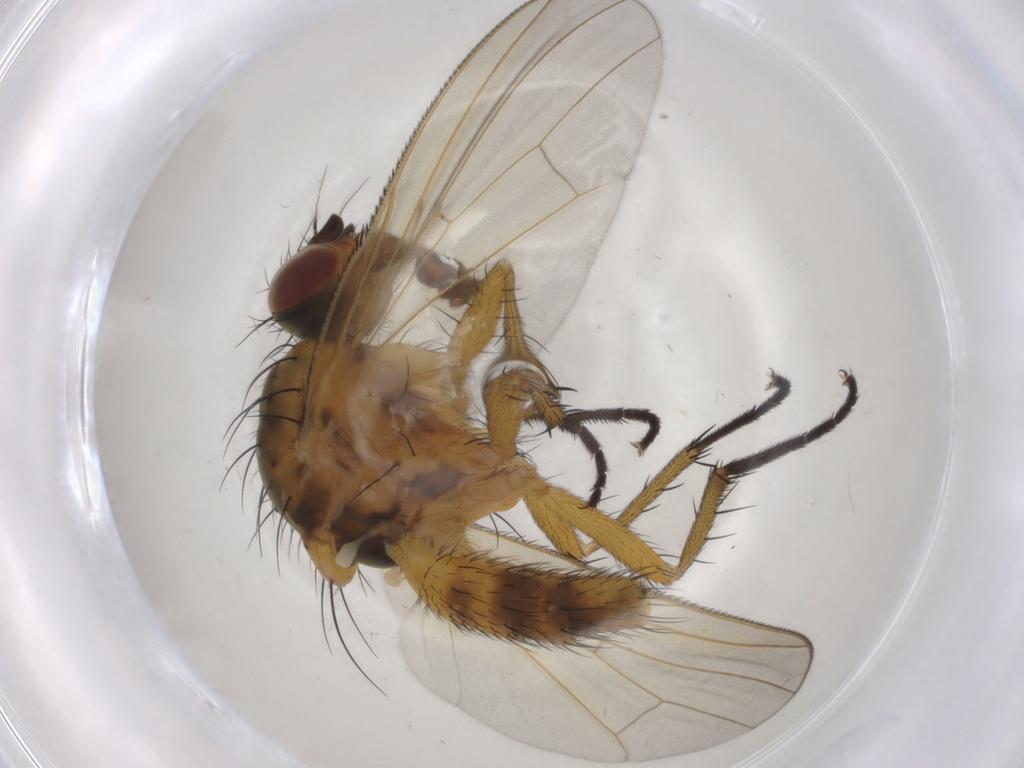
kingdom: Animalia
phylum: Arthropoda
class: Insecta
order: Diptera
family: Anthomyiidae
